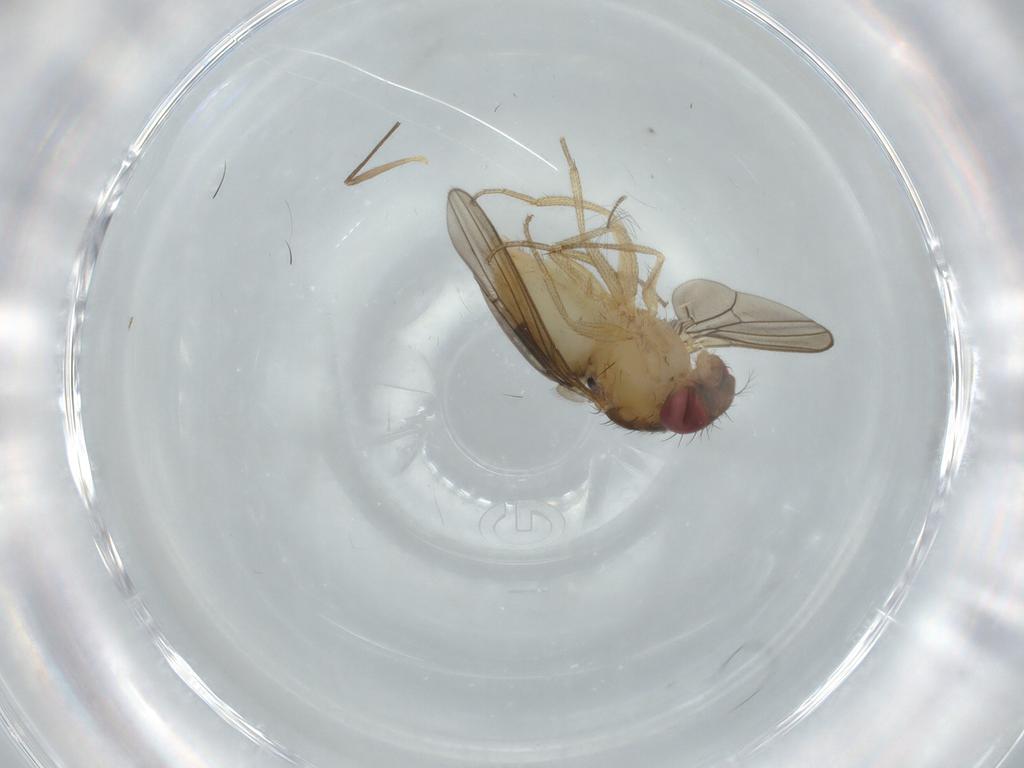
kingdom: Animalia
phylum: Arthropoda
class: Insecta
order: Diptera
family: Drosophilidae
